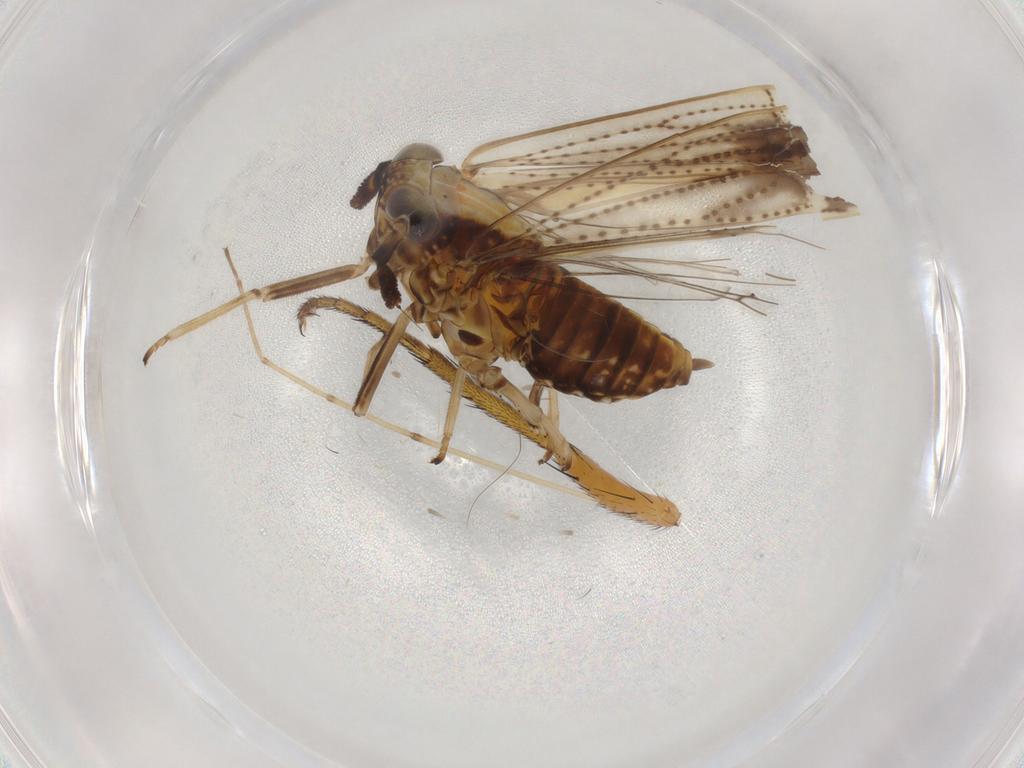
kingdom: Animalia
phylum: Arthropoda
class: Insecta
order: Hemiptera
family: Delphacidae
